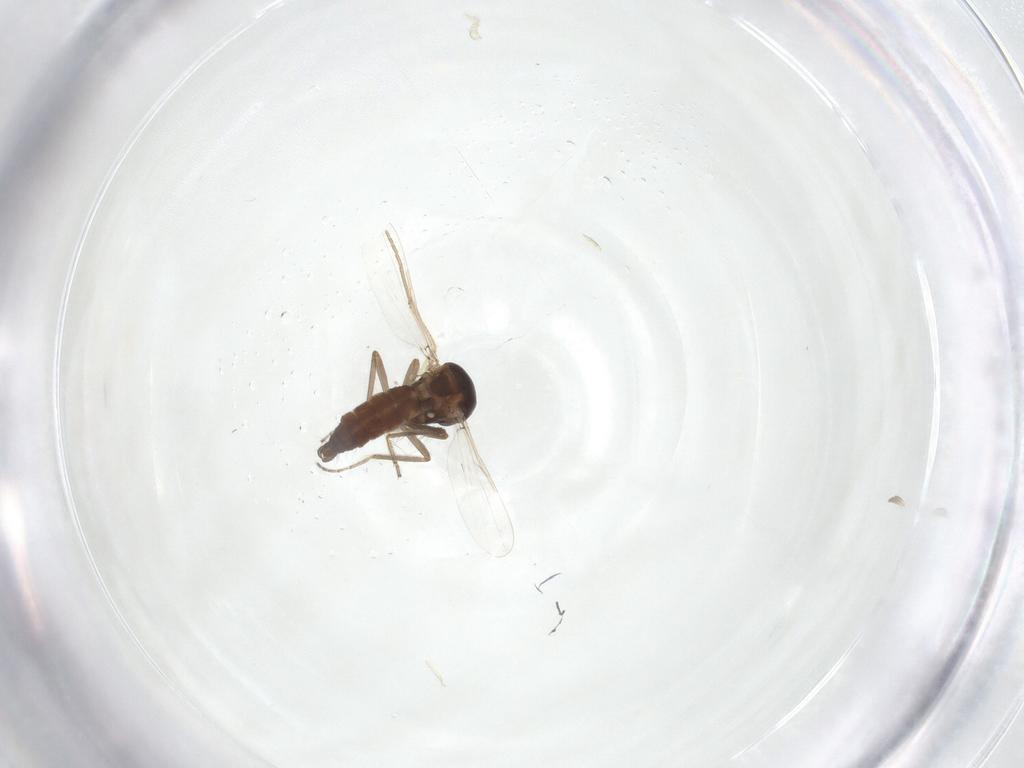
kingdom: Animalia
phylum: Arthropoda
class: Insecta
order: Diptera
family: Ceratopogonidae
